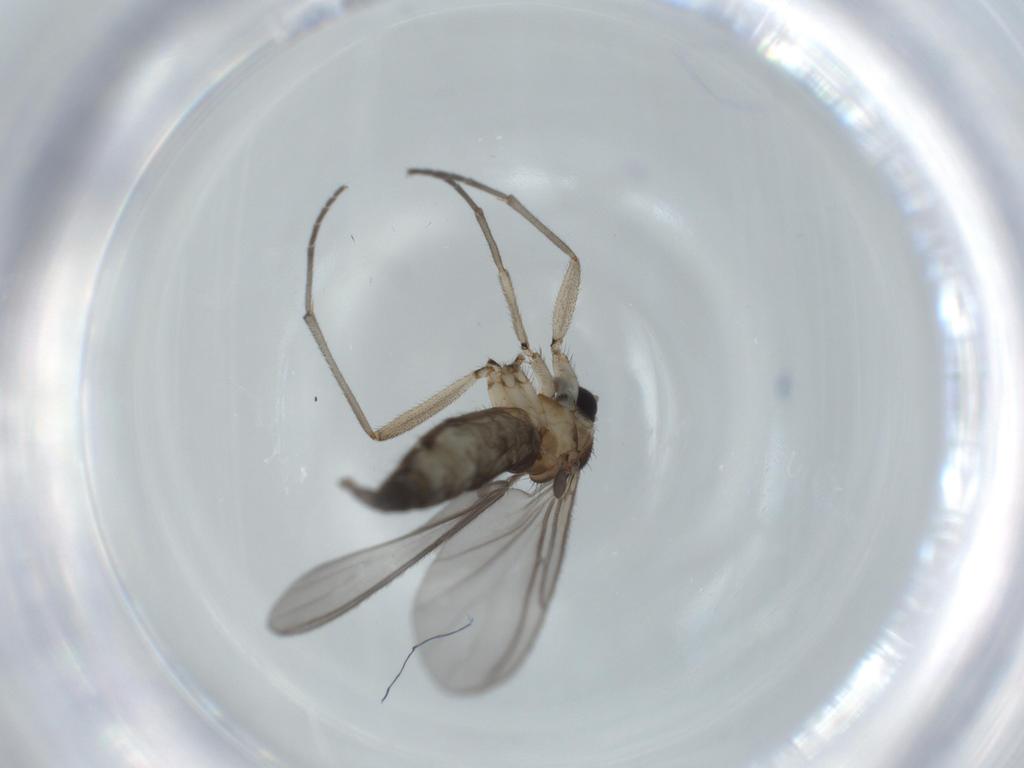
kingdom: Animalia
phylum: Arthropoda
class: Insecta
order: Diptera
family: Sciaridae
